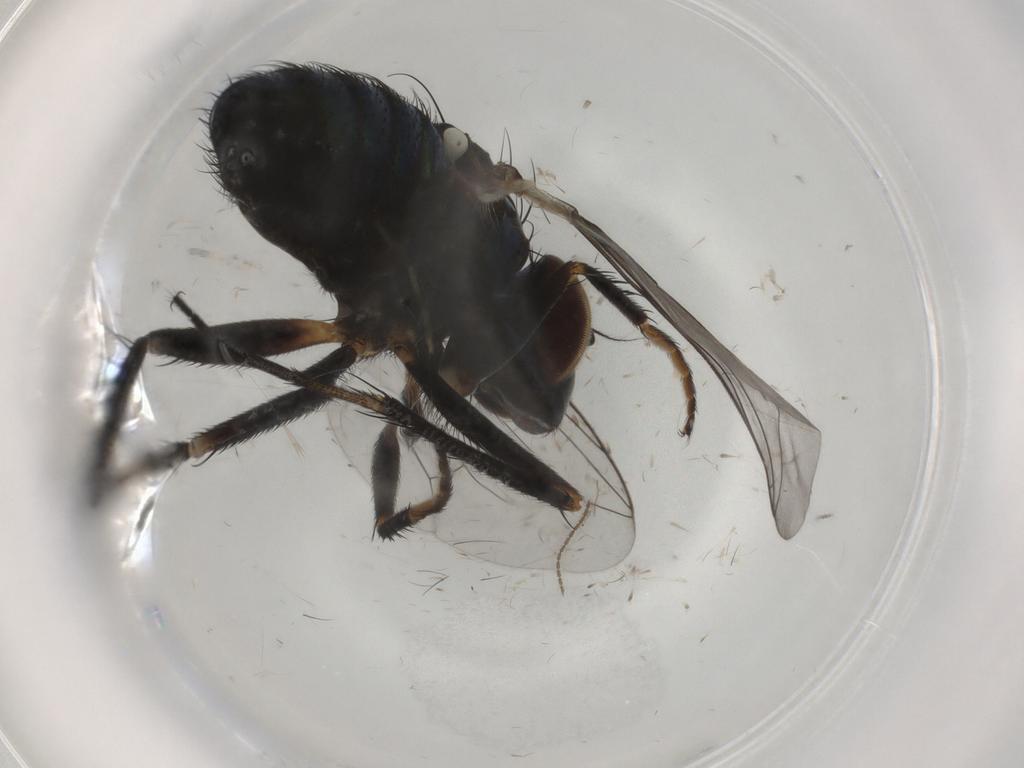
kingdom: Animalia
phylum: Arthropoda
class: Insecta
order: Diptera
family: Dolichopodidae
